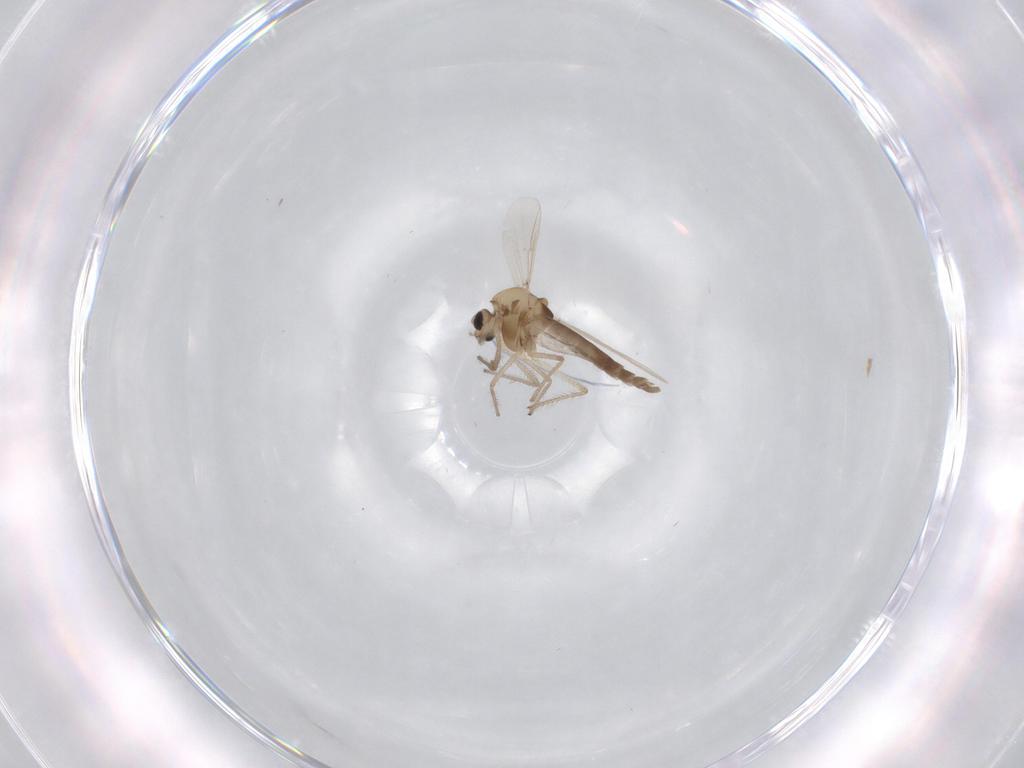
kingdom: Animalia
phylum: Arthropoda
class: Insecta
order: Diptera
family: Chironomidae
